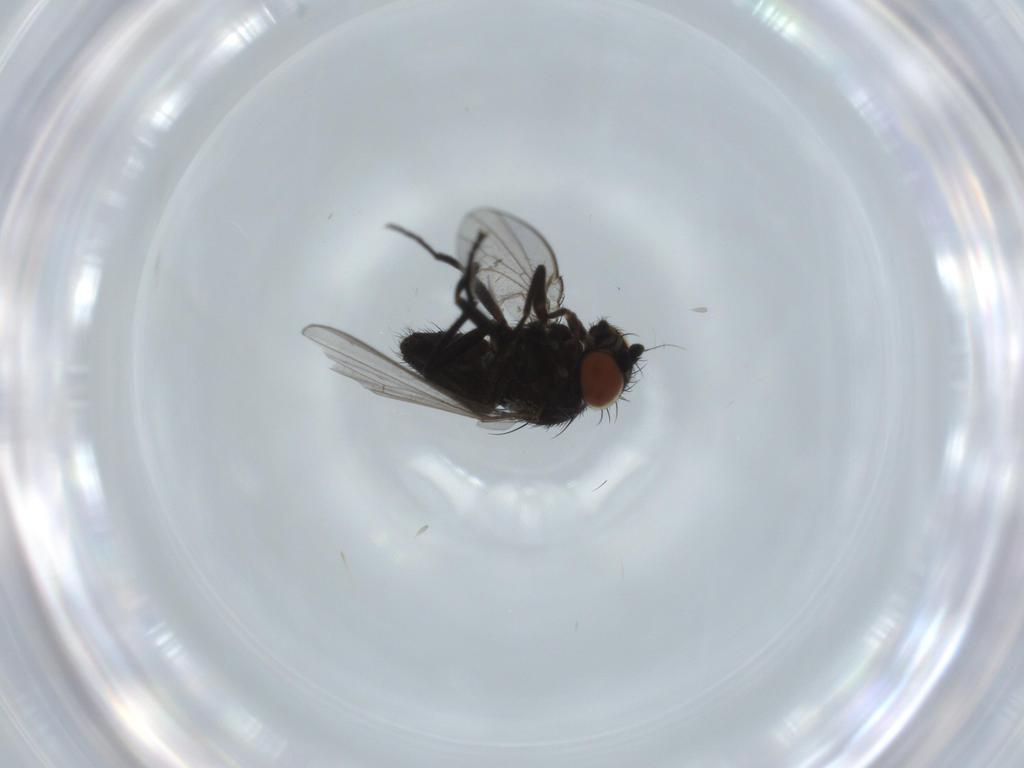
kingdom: Animalia
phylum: Arthropoda
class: Insecta
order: Diptera
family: Milichiidae
